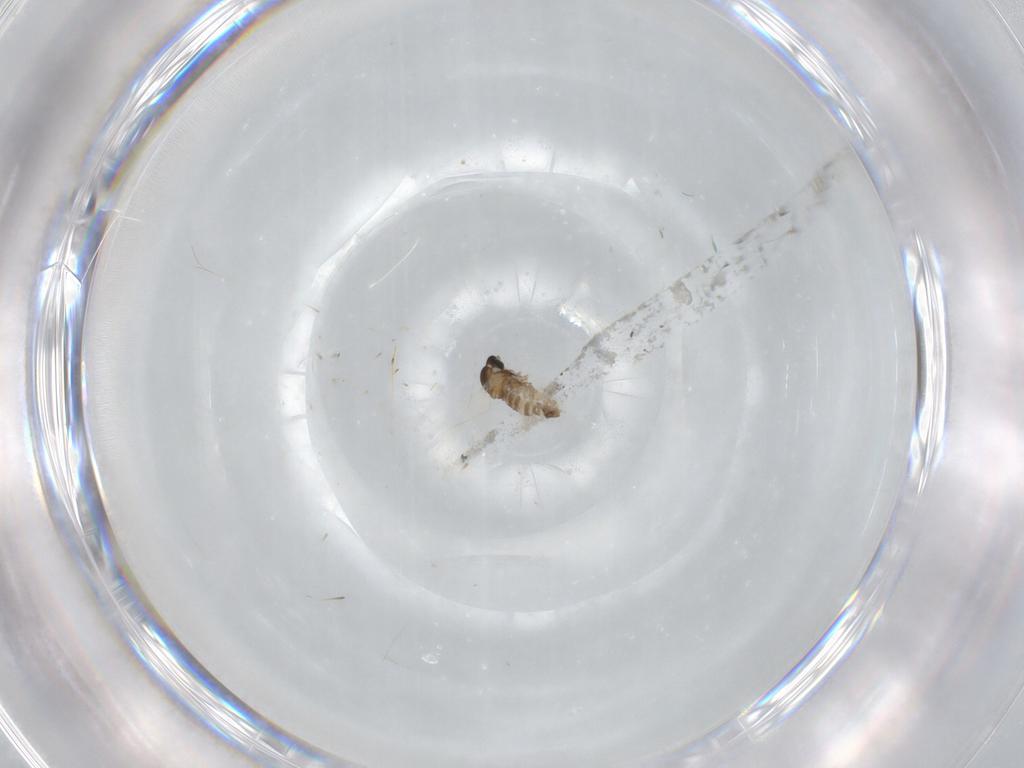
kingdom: Animalia
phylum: Arthropoda
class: Insecta
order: Diptera
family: Cecidomyiidae
